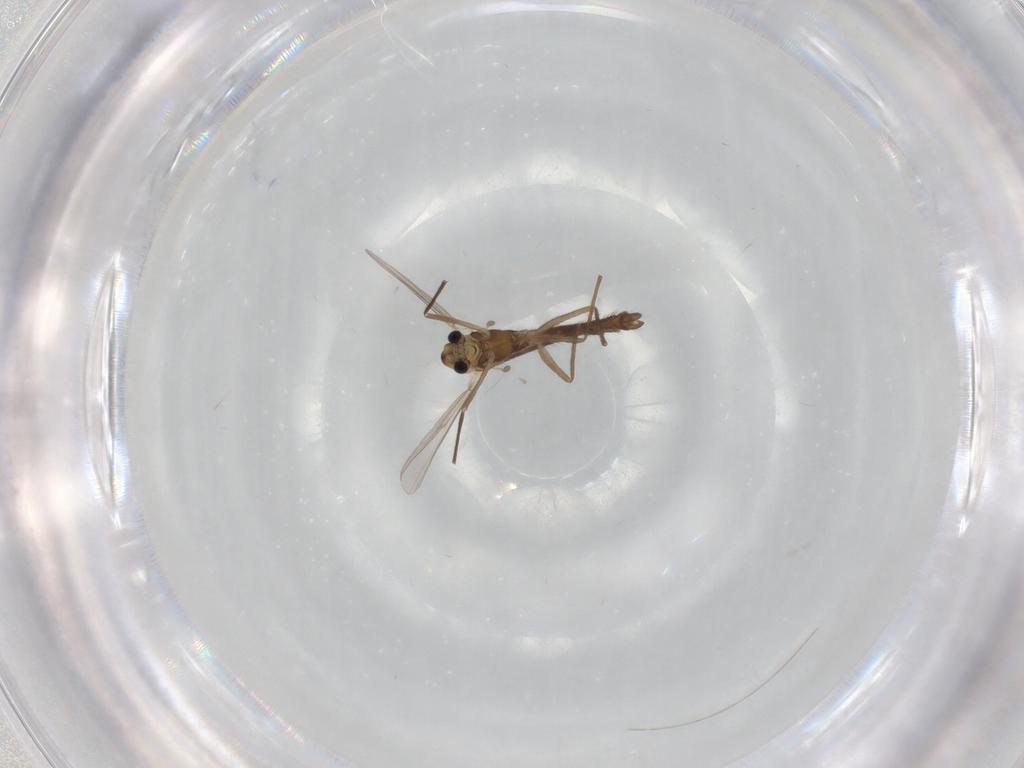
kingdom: Animalia
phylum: Arthropoda
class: Insecta
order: Diptera
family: Chironomidae
